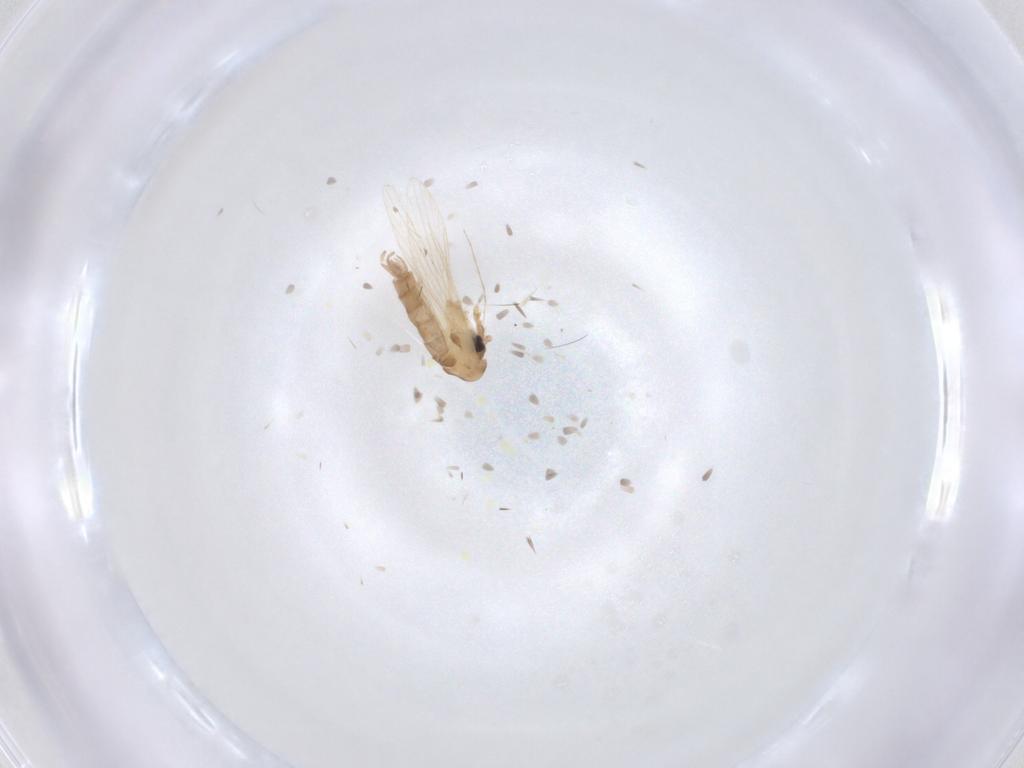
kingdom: Animalia
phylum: Arthropoda
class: Insecta
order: Diptera
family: Psychodidae
